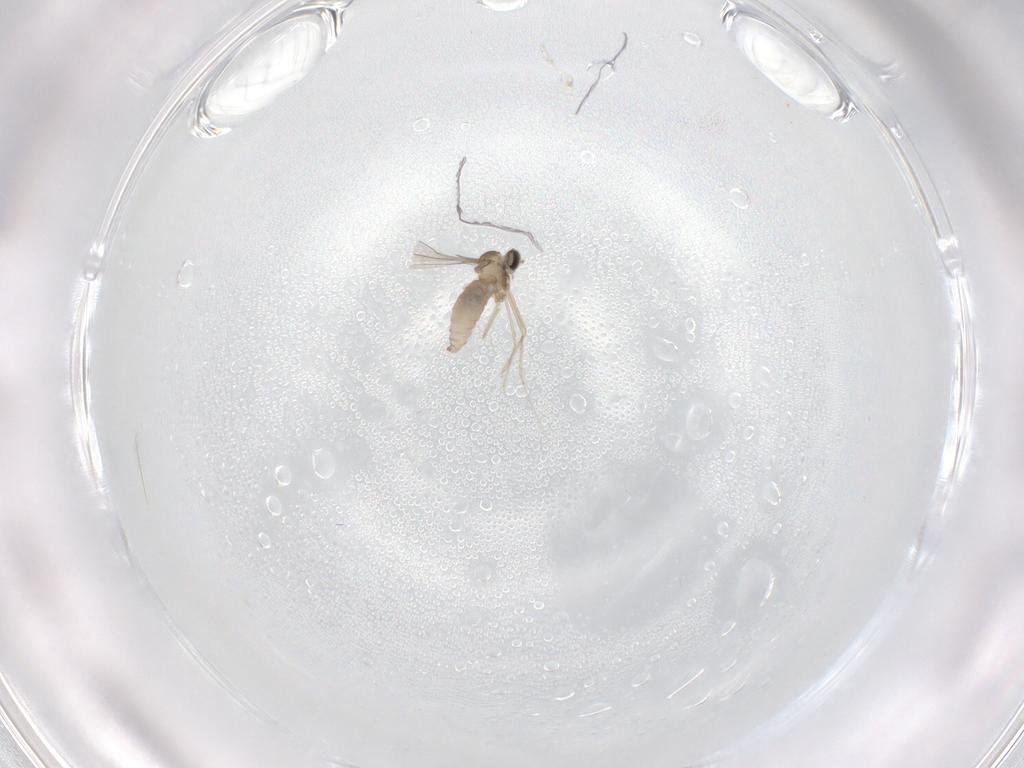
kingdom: Animalia
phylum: Arthropoda
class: Insecta
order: Diptera
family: Cecidomyiidae
